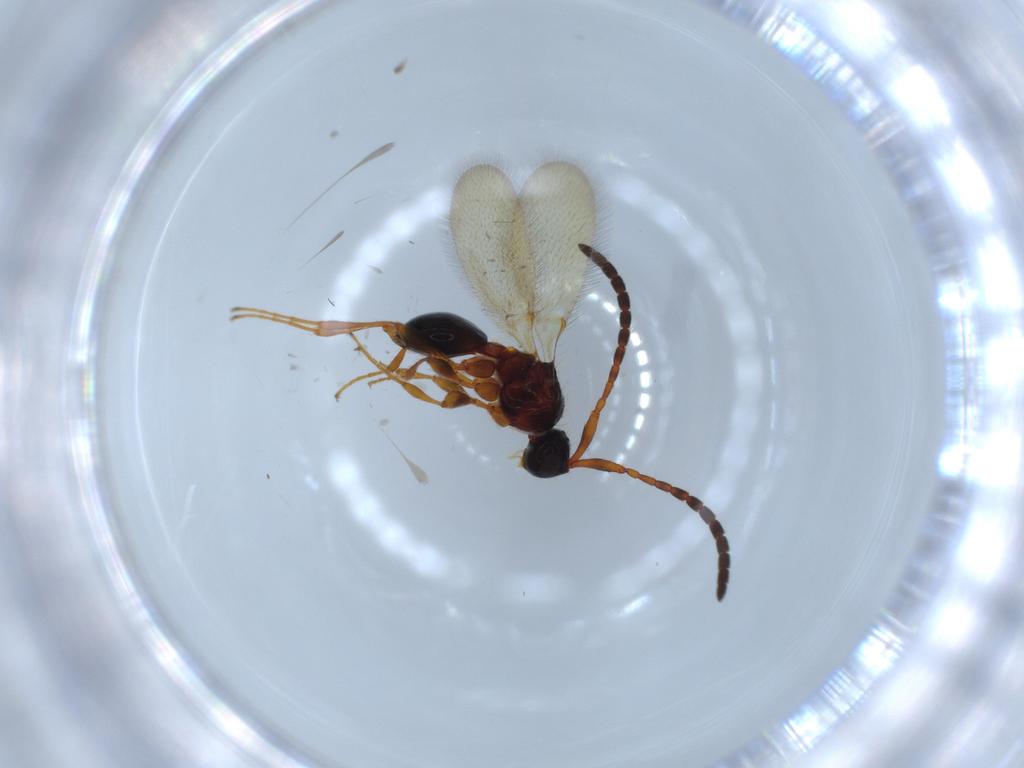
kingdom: Animalia
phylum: Arthropoda
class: Insecta
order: Hymenoptera
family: Diapriidae
